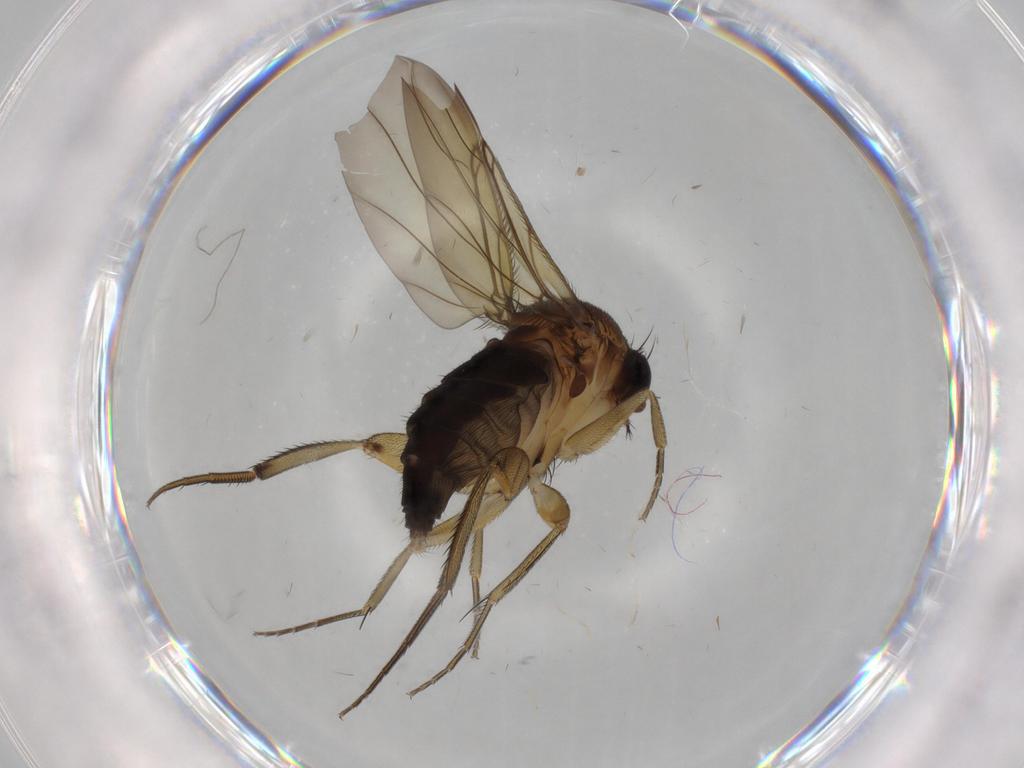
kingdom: Animalia
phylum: Arthropoda
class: Insecta
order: Diptera
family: Phoridae
